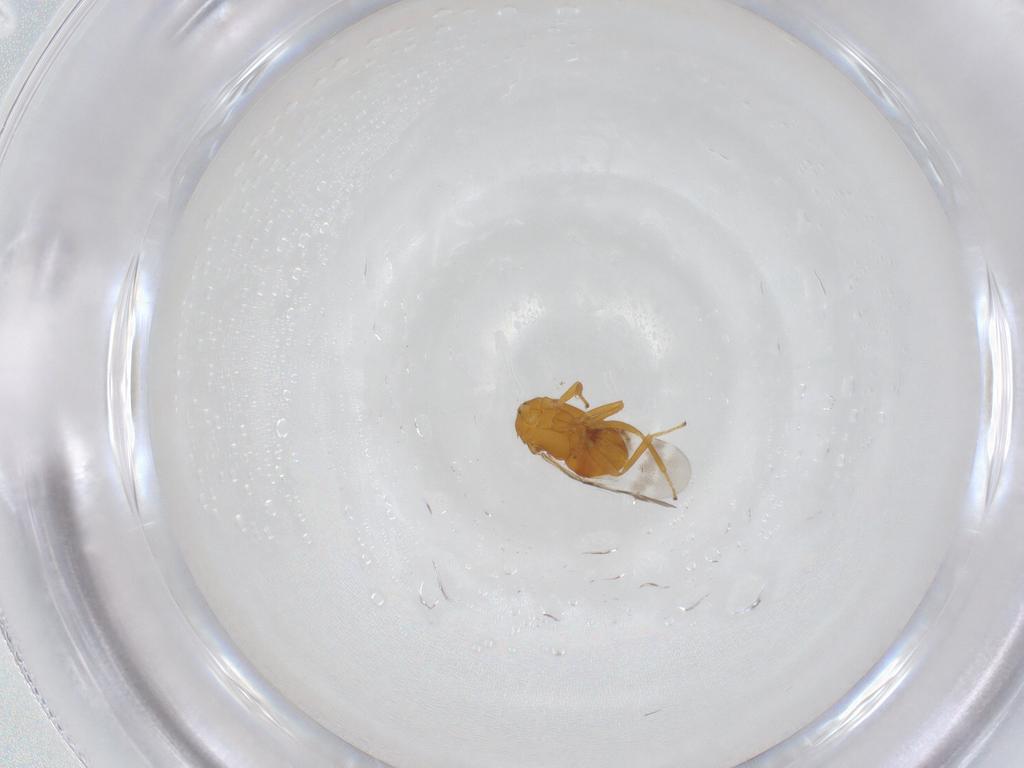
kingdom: Animalia
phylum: Arthropoda
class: Insecta
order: Hymenoptera
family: Encyrtidae
